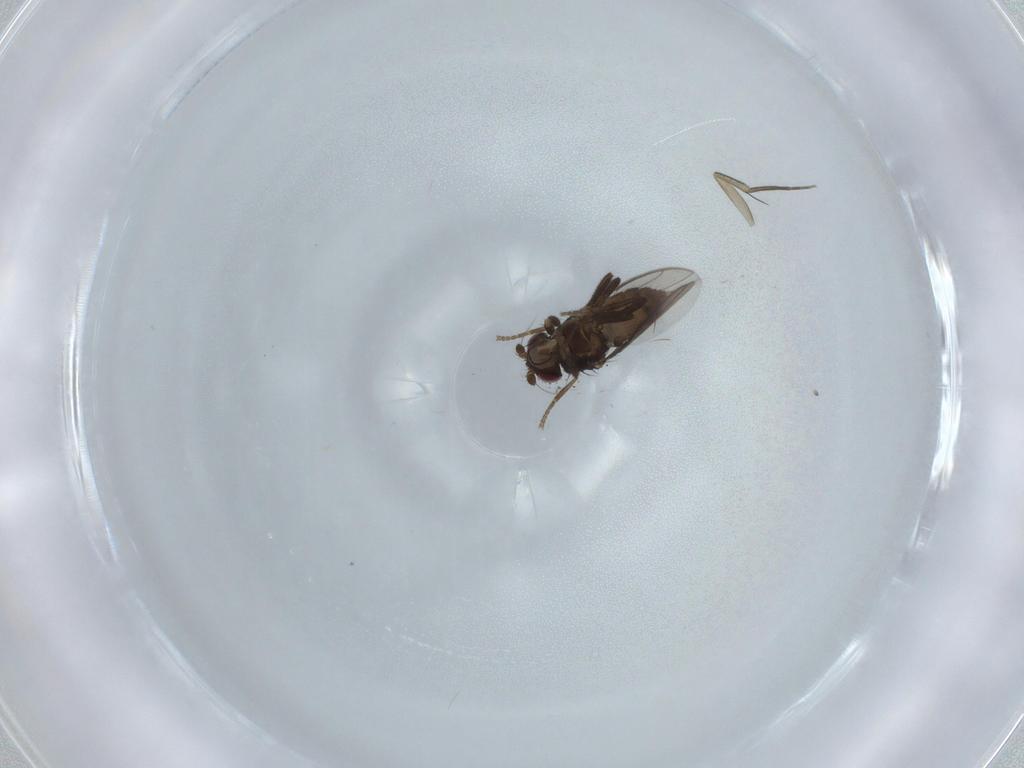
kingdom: Animalia
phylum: Arthropoda
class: Insecta
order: Diptera
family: Sphaeroceridae
